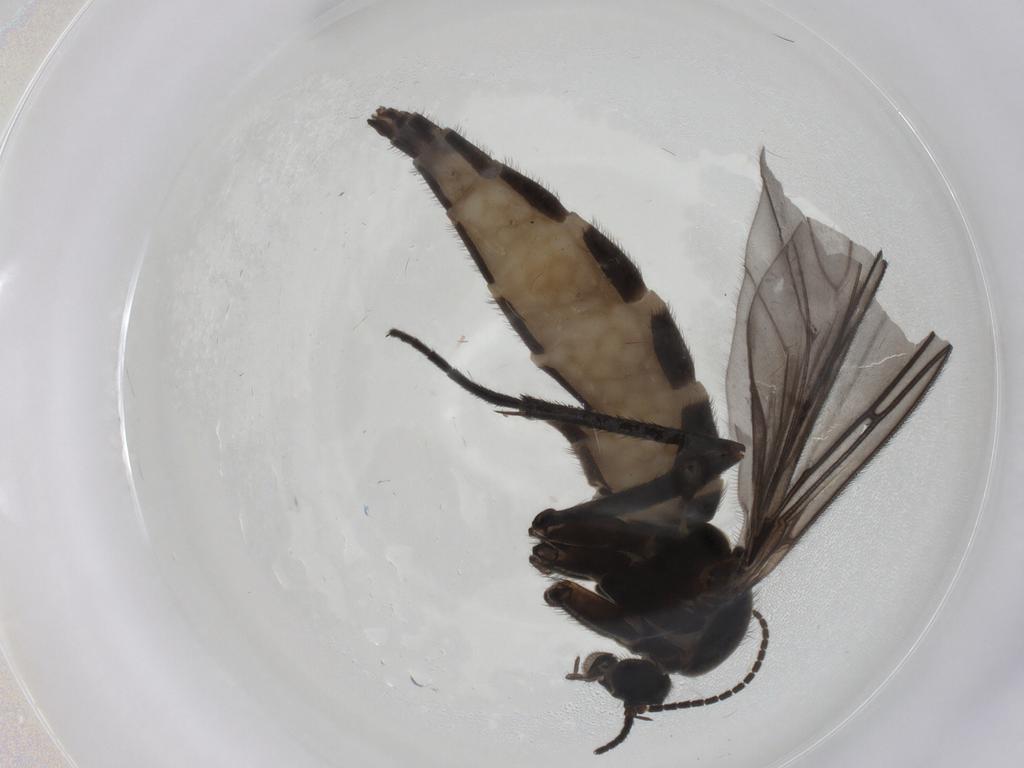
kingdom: Animalia
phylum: Arthropoda
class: Insecta
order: Diptera
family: Sciaridae
